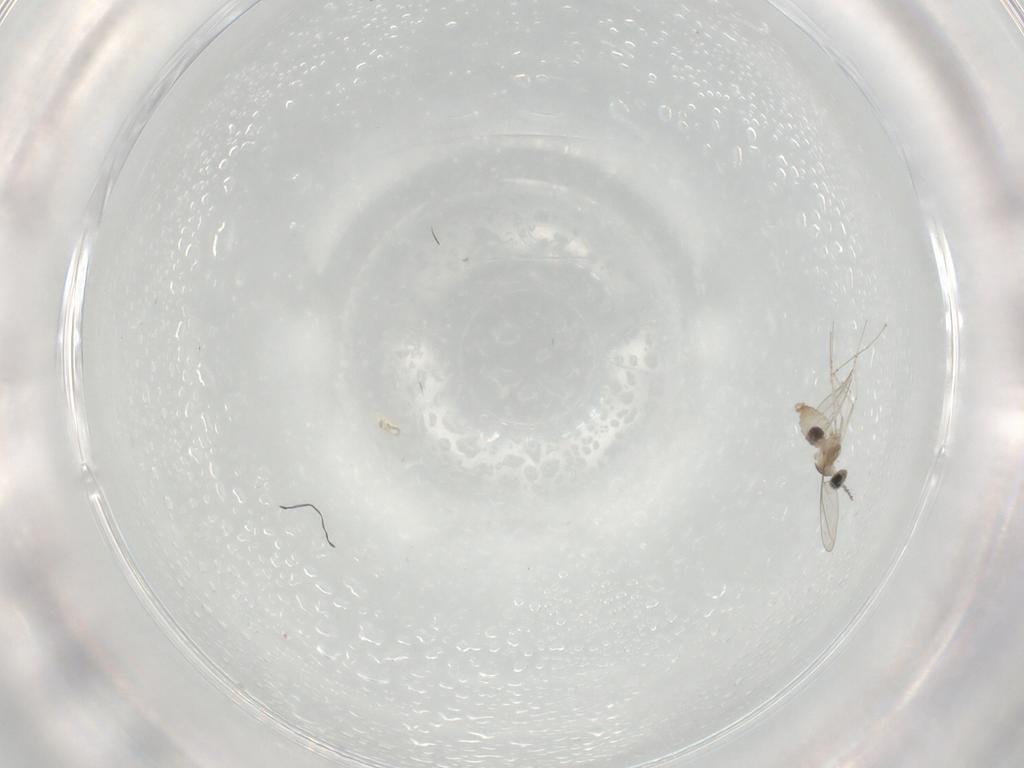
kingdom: Animalia
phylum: Arthropoda
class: Insecta
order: Diptera
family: Cecidomyiidae
